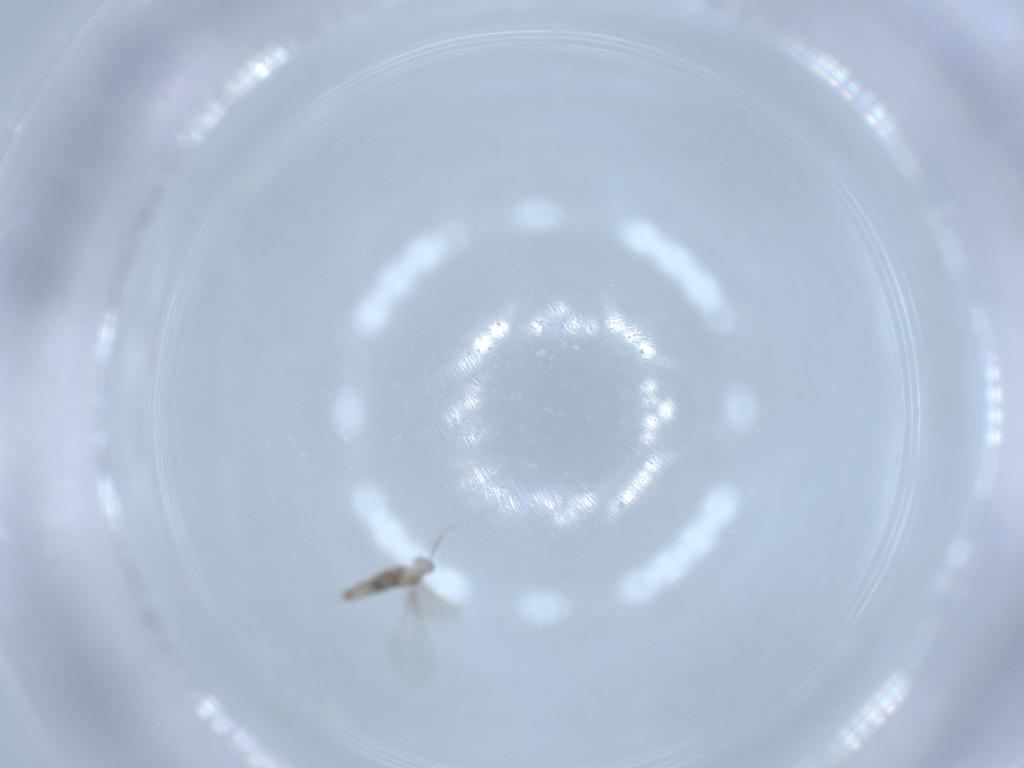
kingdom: Animalia
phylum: Arthropoda
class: Insecta
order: Diptera
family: Cecidomyiidae
